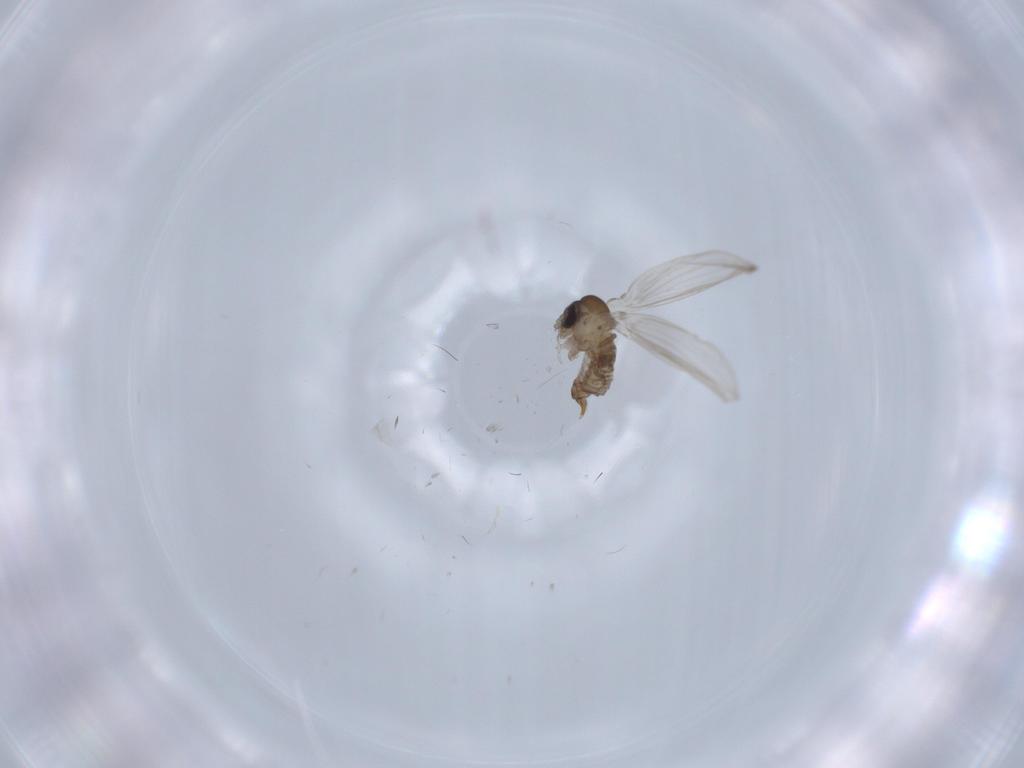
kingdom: Animalia
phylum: Arthropoda
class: Insecta
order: Diptera
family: Psychodidae
